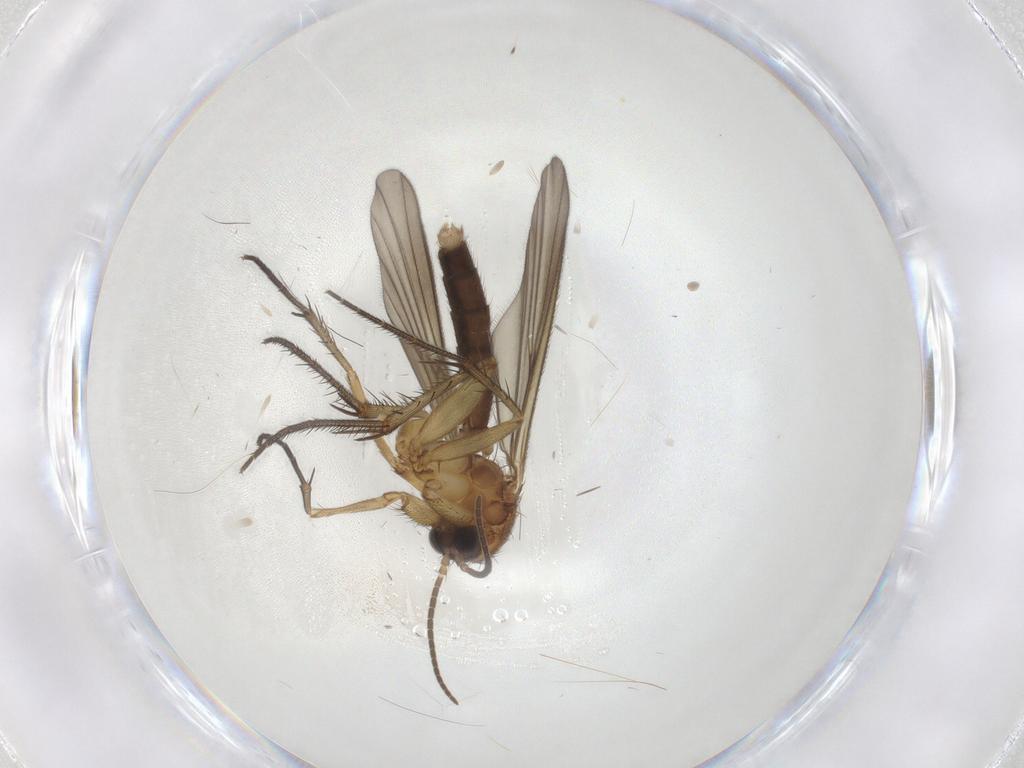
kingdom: Animalia
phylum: Arthropoda
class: Insecta
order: Diptera
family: Mycetophilidae
